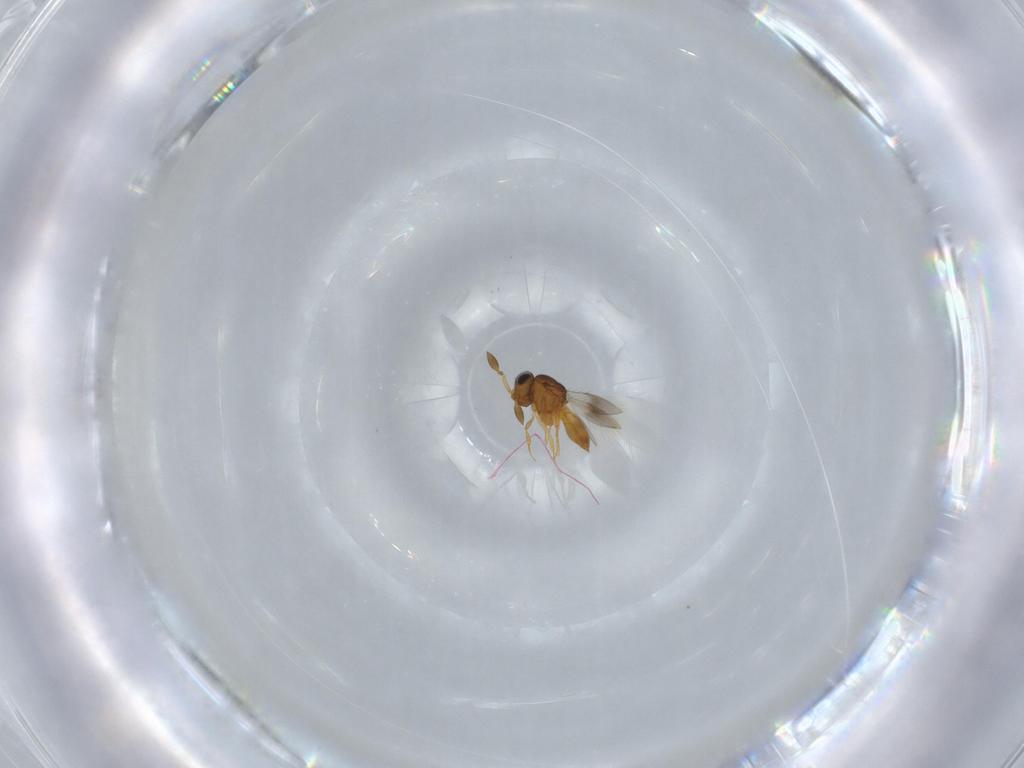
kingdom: Animalia
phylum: Arthropoda
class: Insecta
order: Hymenoptera
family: Scelionidae
